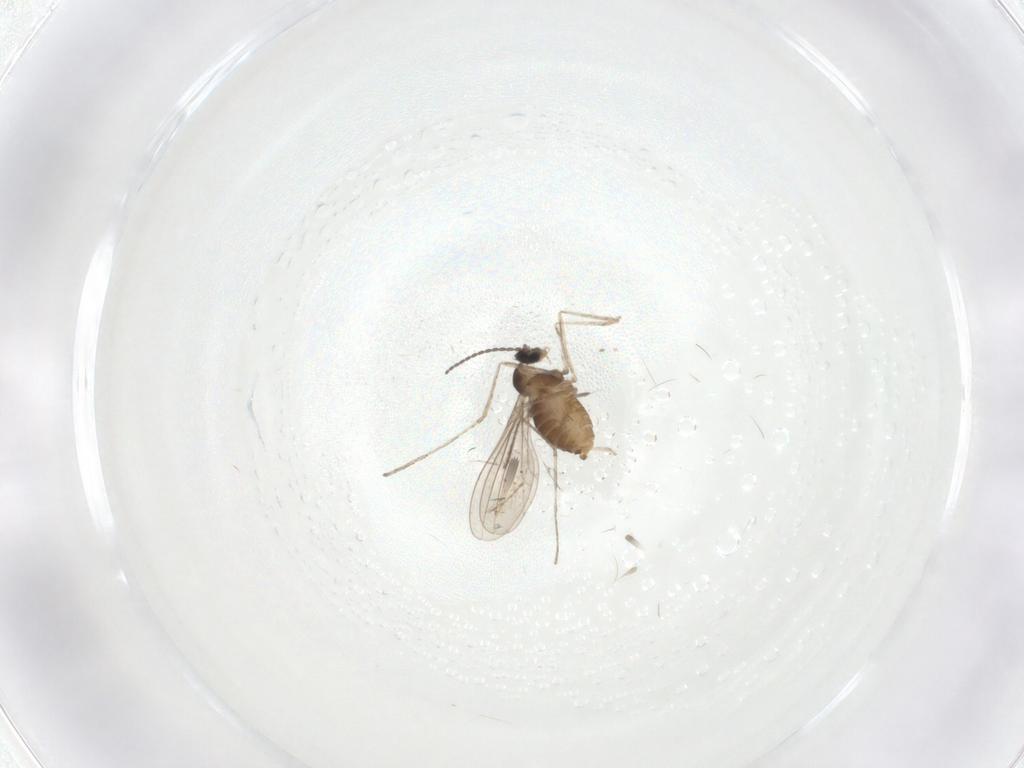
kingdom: Animalia
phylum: Arthropoda
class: Insecta
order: Diptera
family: Cecidomyiidae
